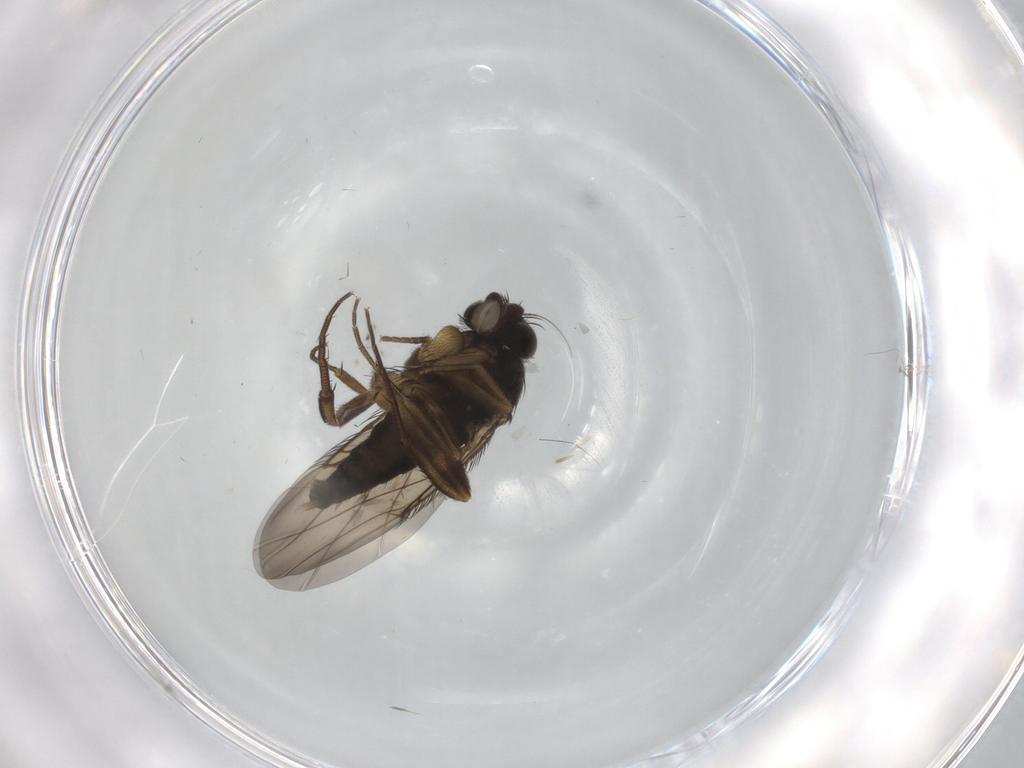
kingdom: Animalia
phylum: Arthropoda
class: Insecta
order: Diptera
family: Phoridae
